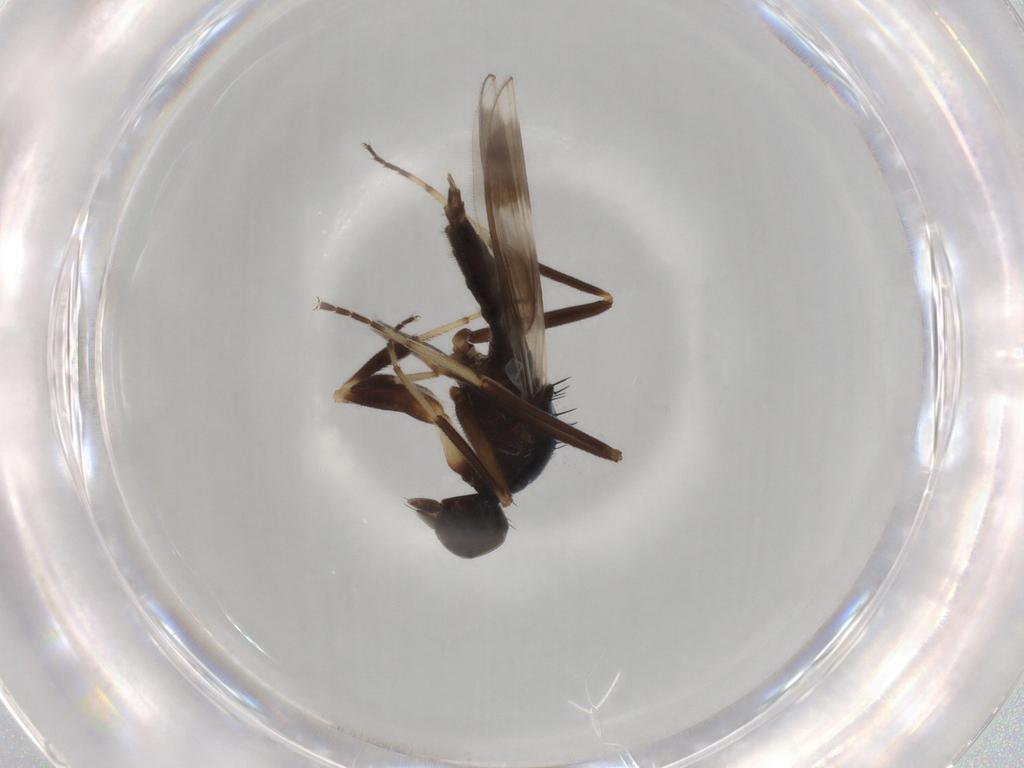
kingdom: Animalia
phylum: Arthropoda
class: Insecta
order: Diptera
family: Hybotidae
